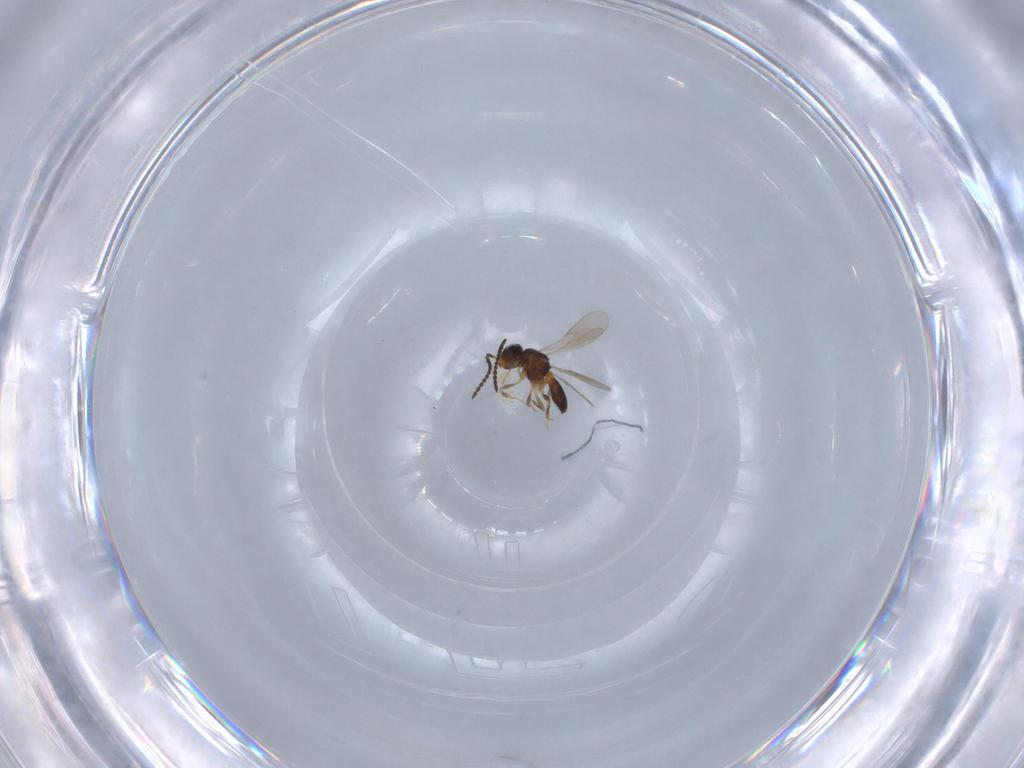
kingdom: Animalia
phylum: Arthropoda
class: Insecta
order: Hymenoptera
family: Scelionidae
